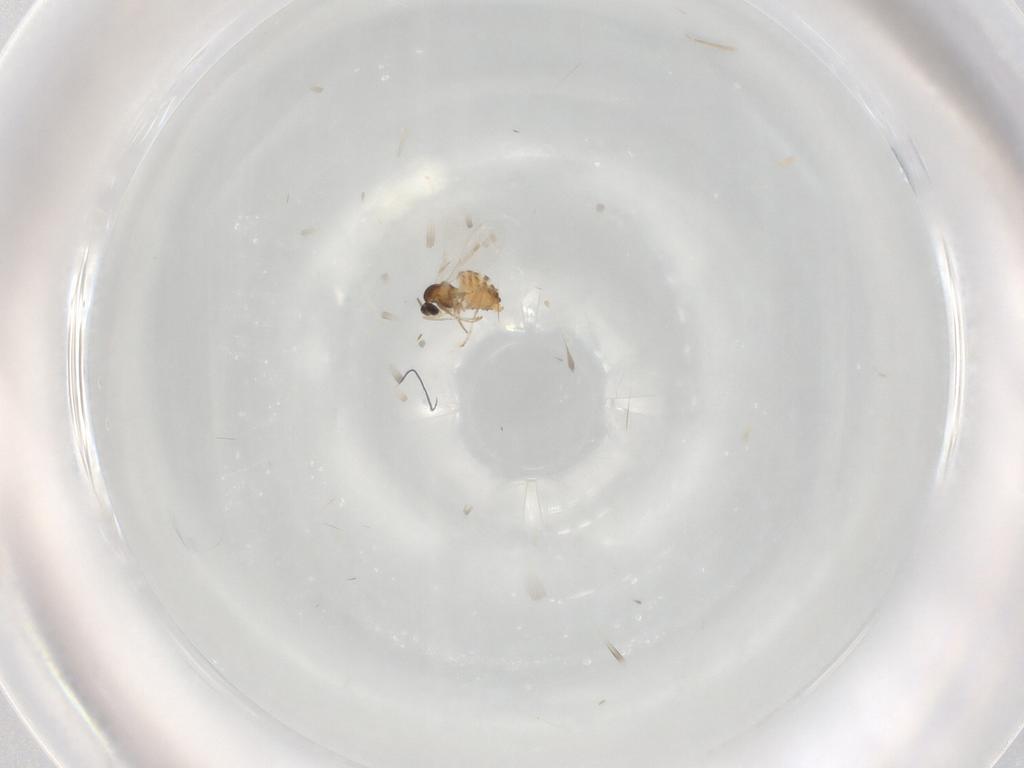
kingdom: Animalia
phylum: Arthropoda
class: Insecta
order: Diptera
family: Cecidomyiidae
